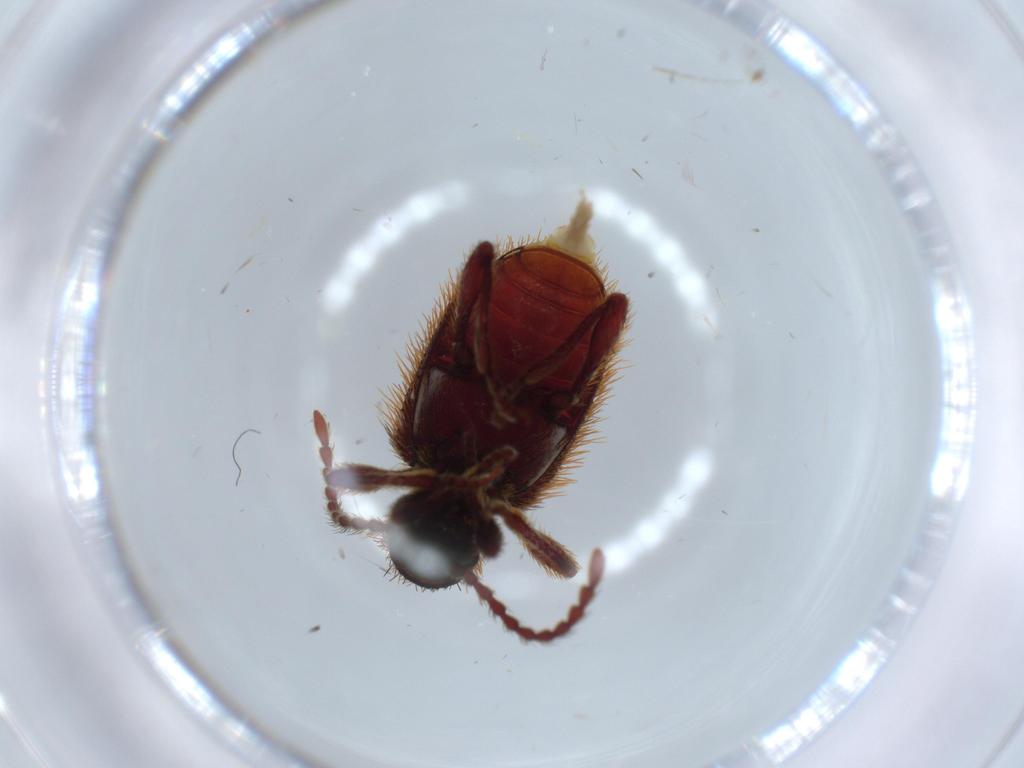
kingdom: Animalia
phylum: Arthropoda
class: Insecta
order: Coleoptera
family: Ptinidae
